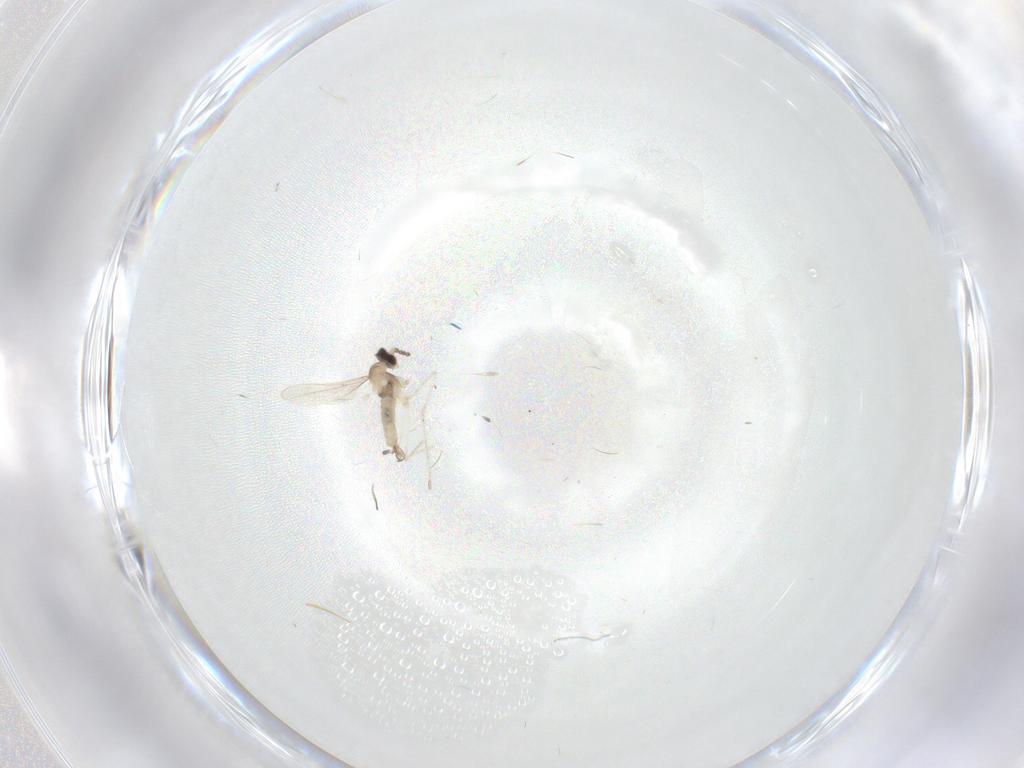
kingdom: Animalia
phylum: Arthropoda
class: Insecta
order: Diptera
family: Cecidomyiidae
